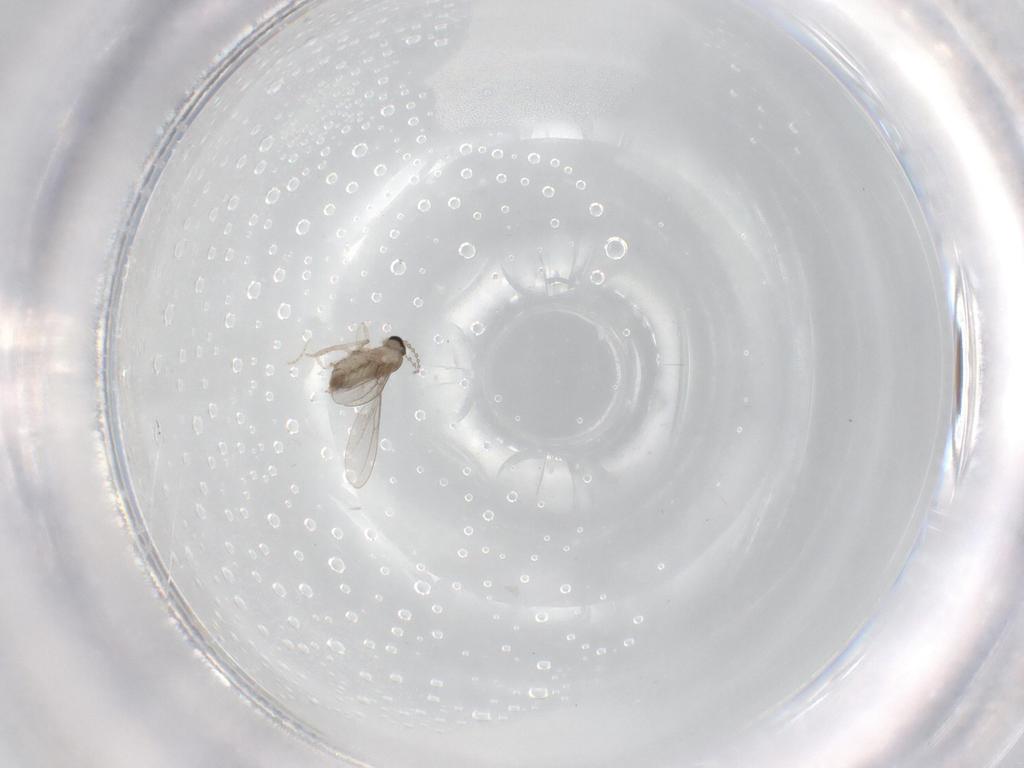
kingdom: Animalia
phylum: Arthropoda
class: Insecta
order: Diptera
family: Cecidomyiidae
